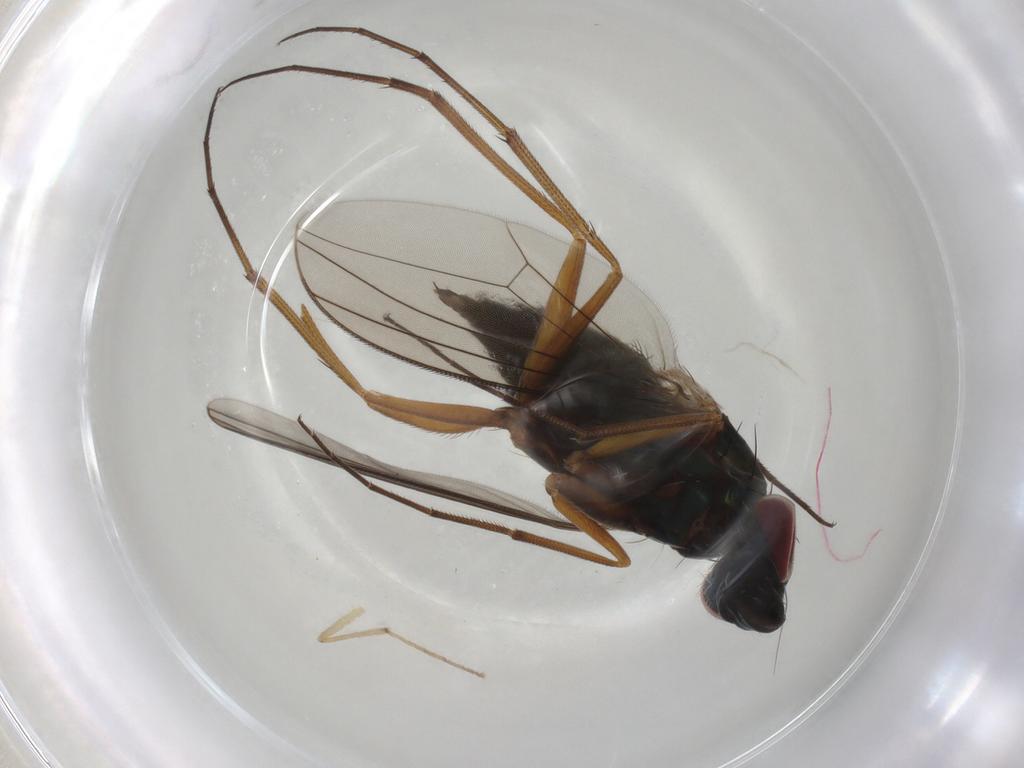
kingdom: Animalia
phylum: Arthropoda
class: Insecta
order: Diptera
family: Dolichopodidae
